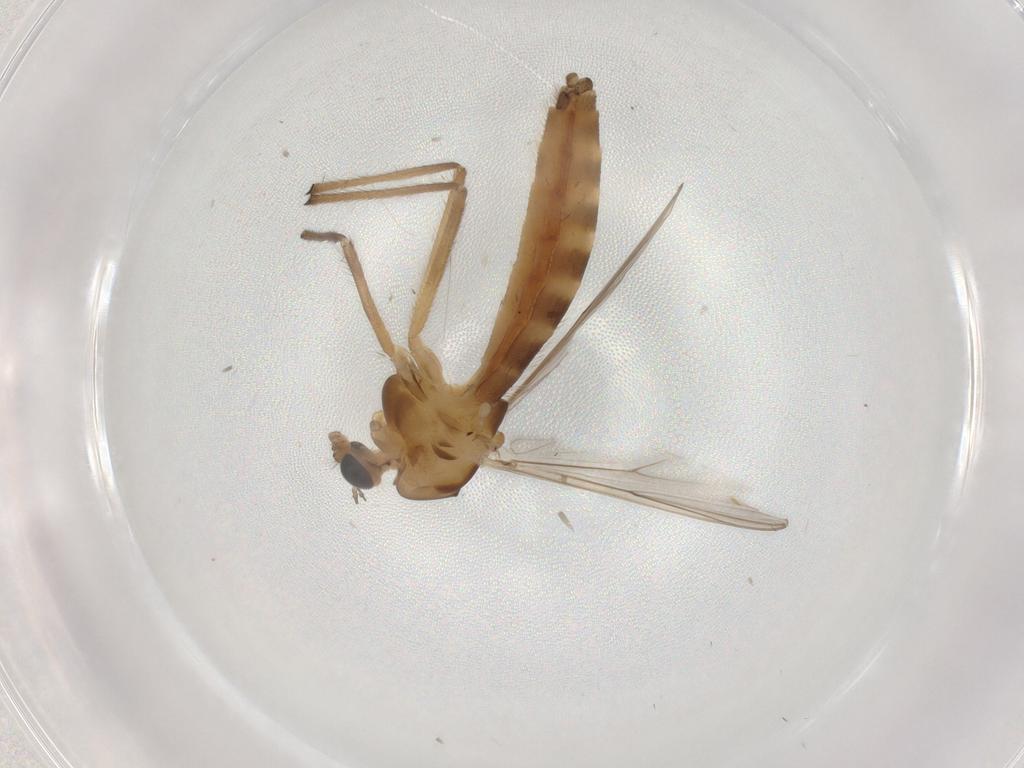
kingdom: Animalia
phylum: Arthropoda
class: Insecta
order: Diptera
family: Chironomidae
